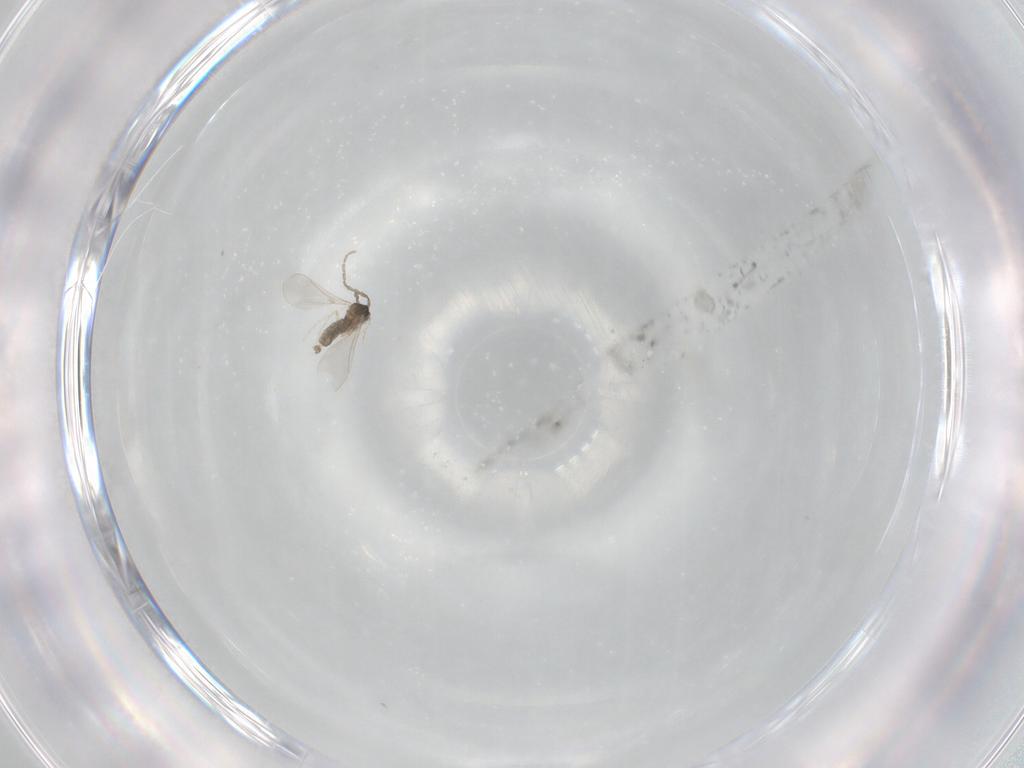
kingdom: Animalia
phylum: Arthropoda
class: Insecta
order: Diptera
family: Cecidomyiidae
